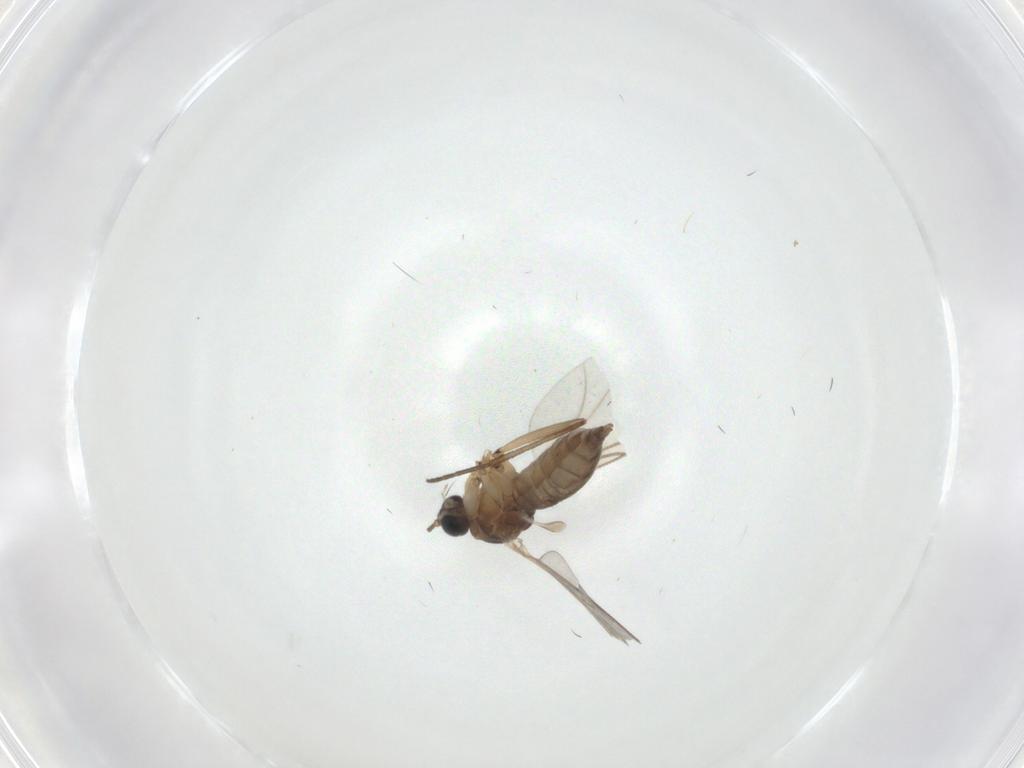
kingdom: Animalia
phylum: Arthropoda
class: Insecta
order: Diptera
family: Sciaridae
